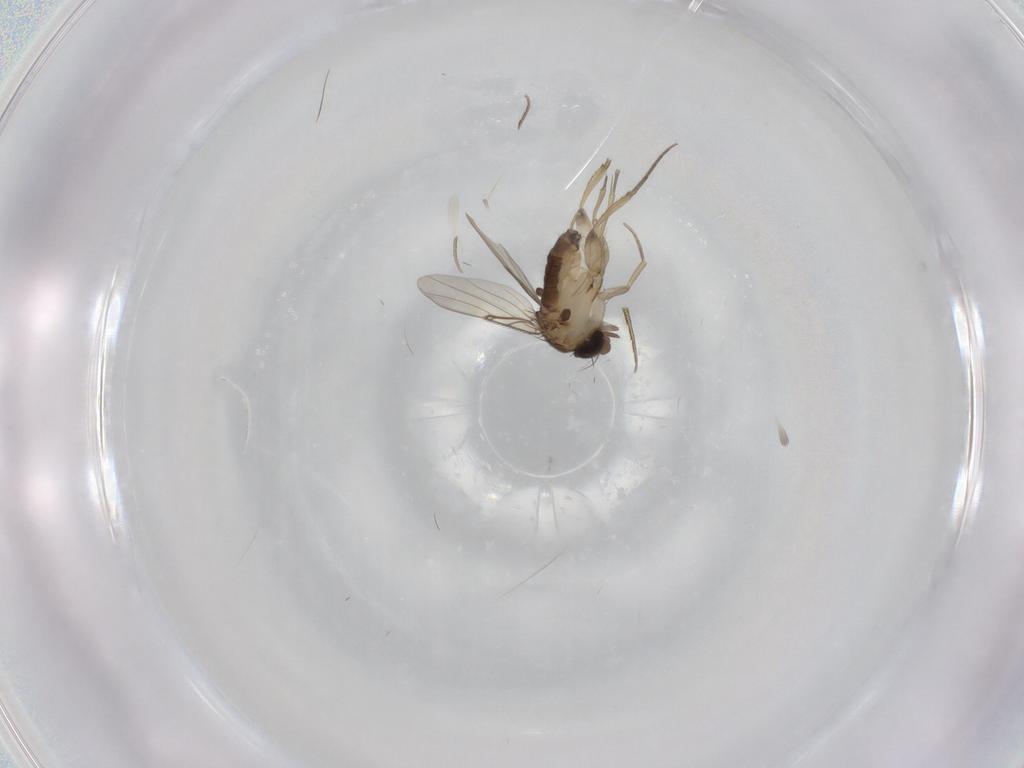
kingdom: Animalia
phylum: Arthropoda
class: Insecta
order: Diptera
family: Phoridae
